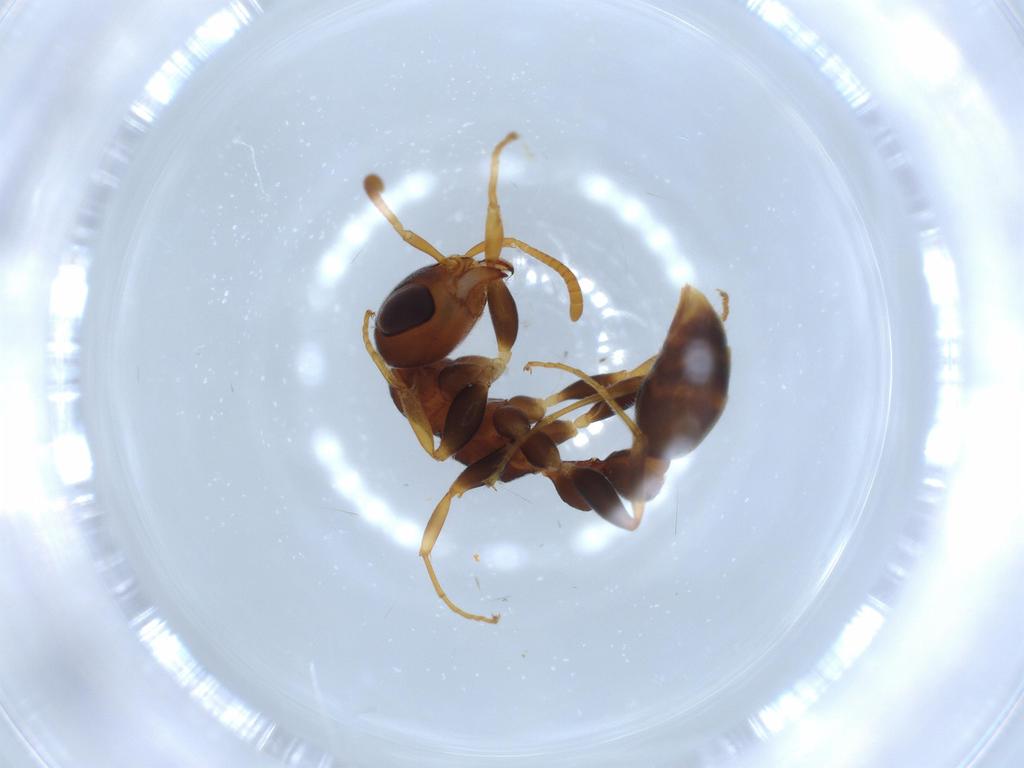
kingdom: Animalia
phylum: Arthropoda
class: Insecta
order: Hymenoptera
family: Formicidae
